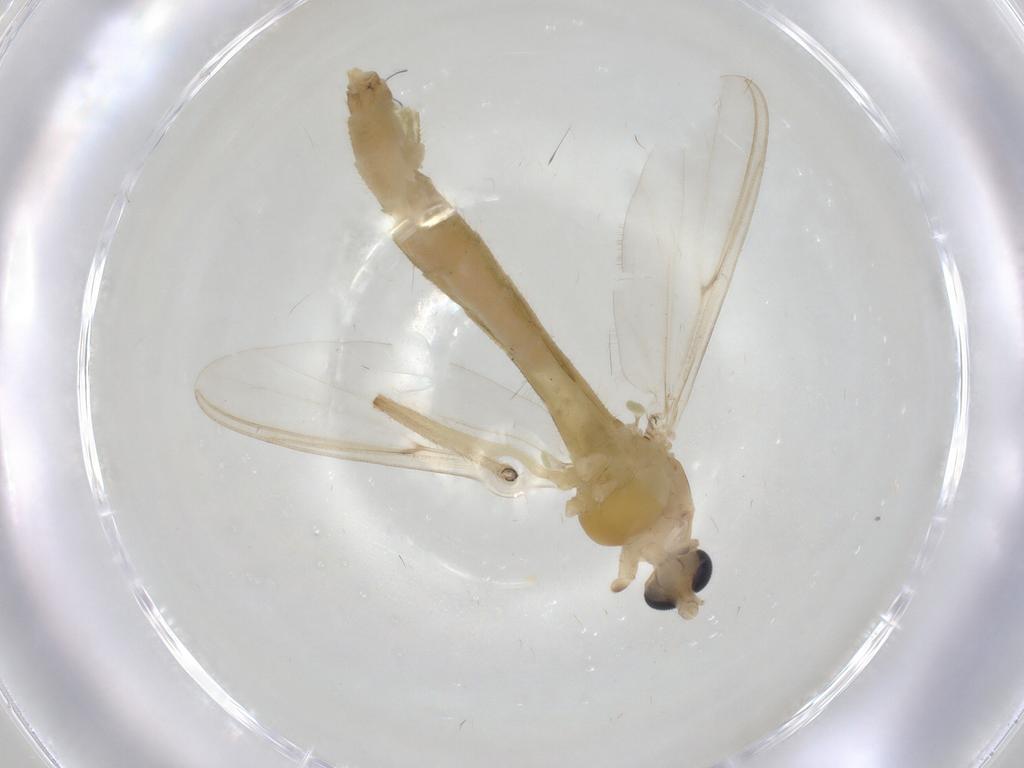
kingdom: Animalia
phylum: Arthropoda
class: Insecta
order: Diptera
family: Chironomidae
